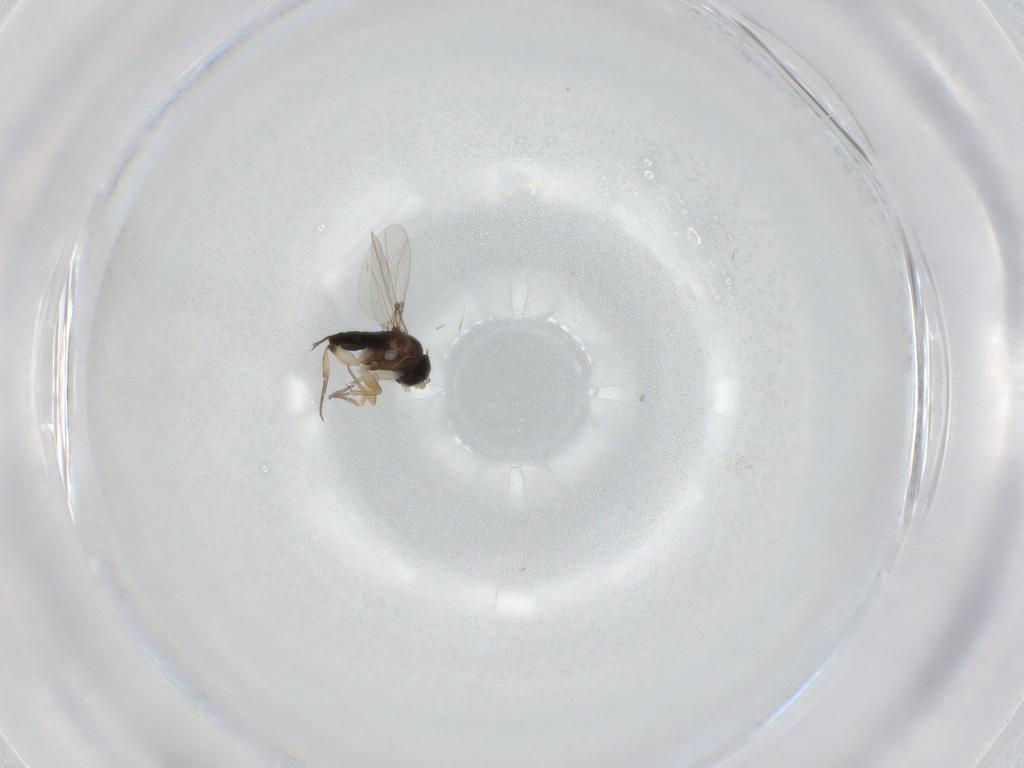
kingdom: Animalia
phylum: Arthropoda
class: Insecta
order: Diptera
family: Phoridae
